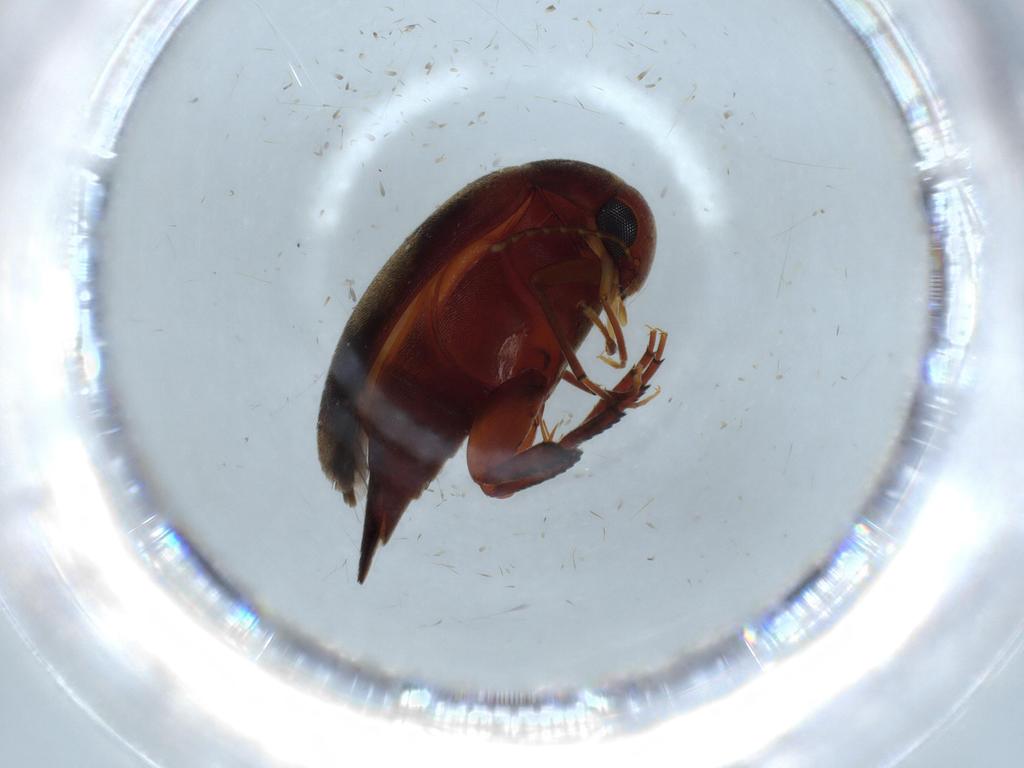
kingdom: Animalia
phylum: Arthropoda
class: Insecta
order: Coleoptera
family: Mordellidae
